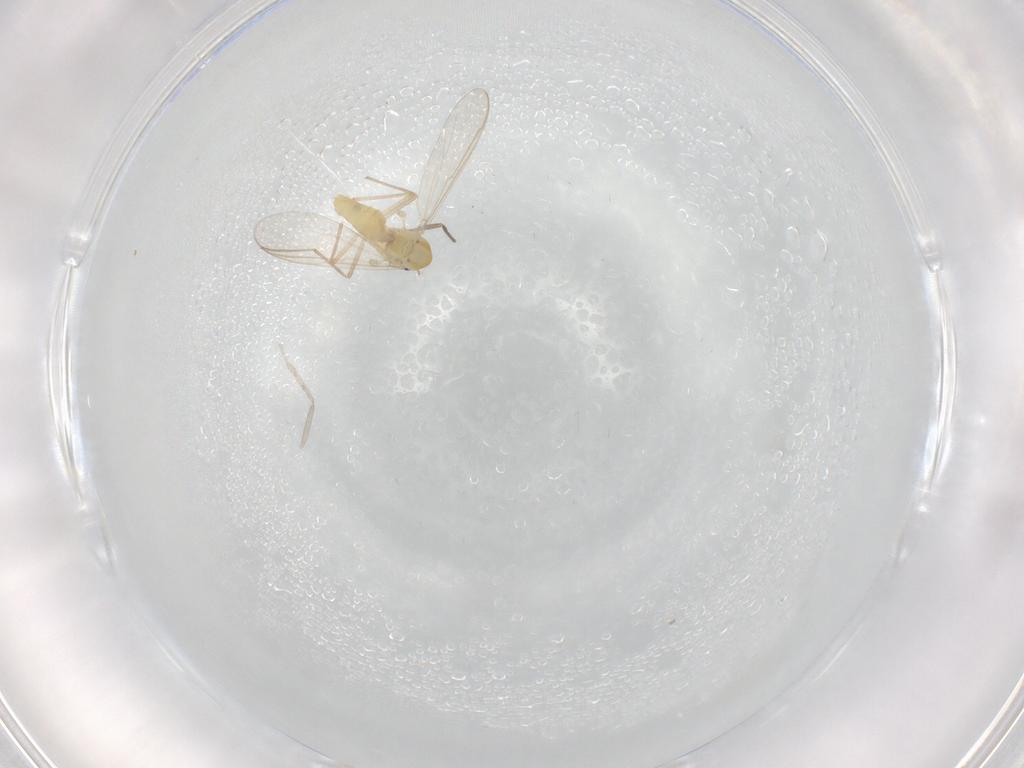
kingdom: Animalia
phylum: Arthropoda
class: Insecta
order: Diptera
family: Chironomidae
